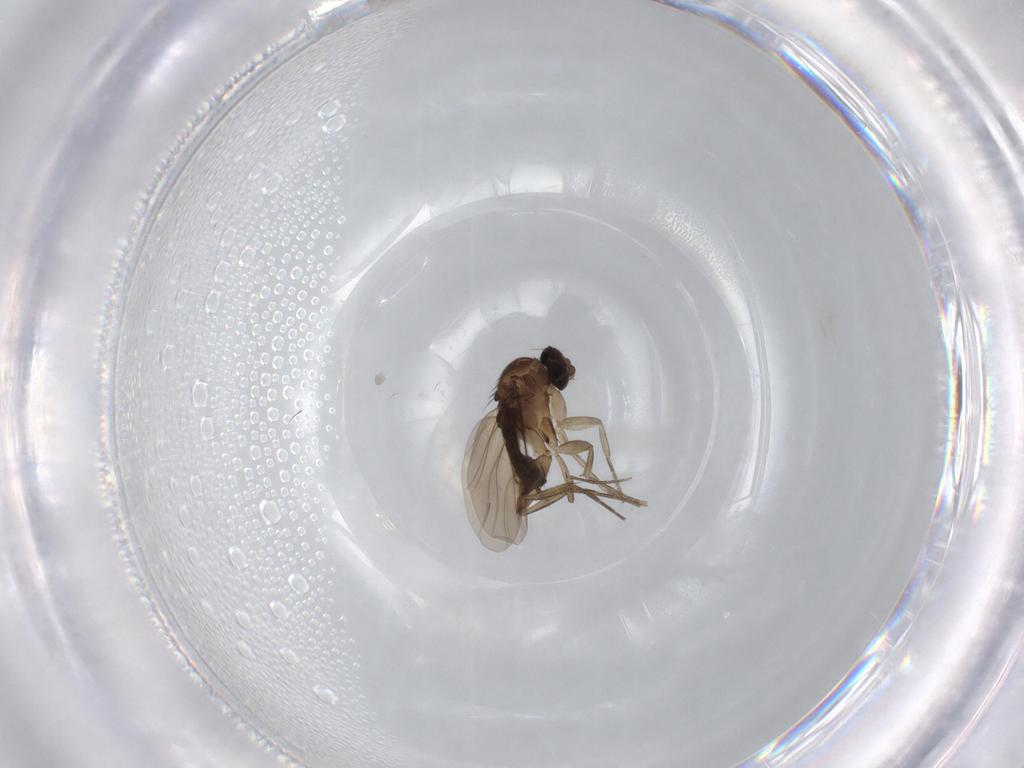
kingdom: Animalia
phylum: Arthropoda
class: Insecta
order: Diptera
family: Phoridae
